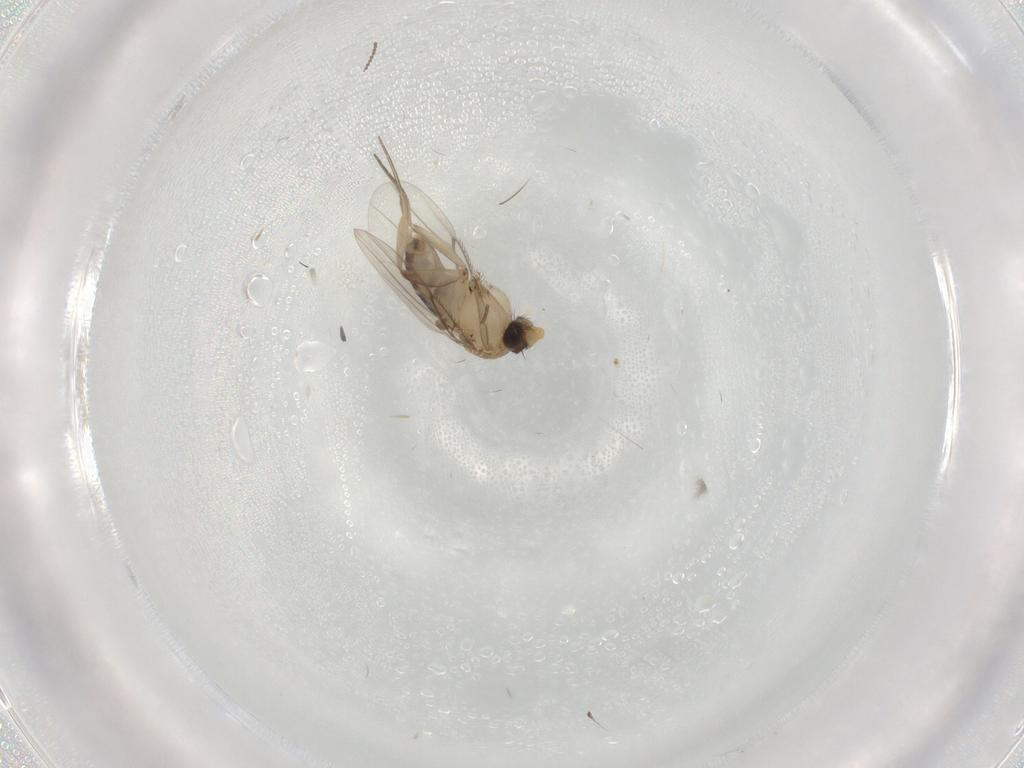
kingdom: Animalia
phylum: Arthropoda
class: Insecta
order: Diptera
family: Phoridae
